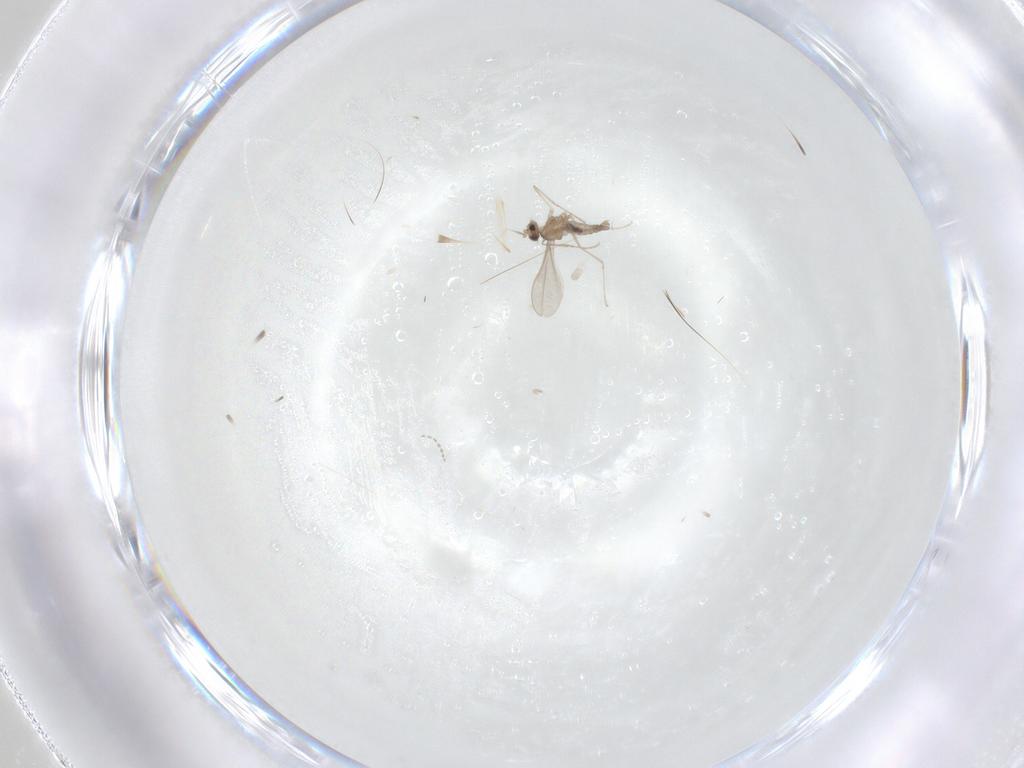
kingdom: Animalia
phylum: Arthropoda
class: Insecta
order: Diptera
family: Cecidomyiidae
